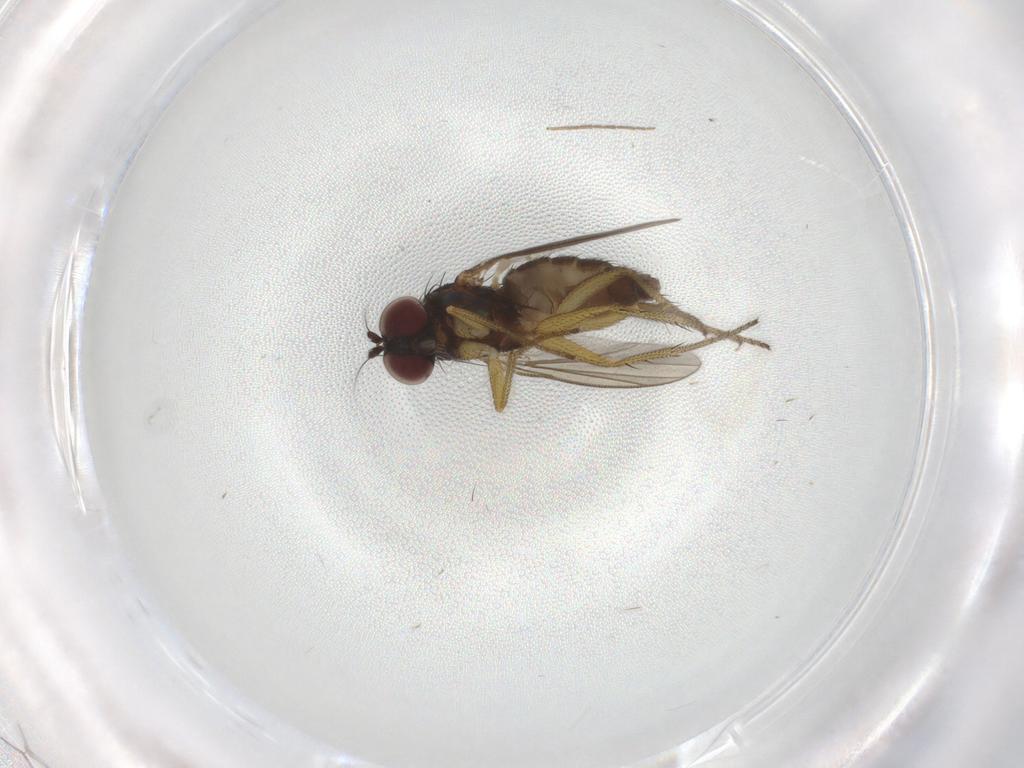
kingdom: Animalia
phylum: Arthropoda
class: Insecta
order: Diptera
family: Dolichopodidae
